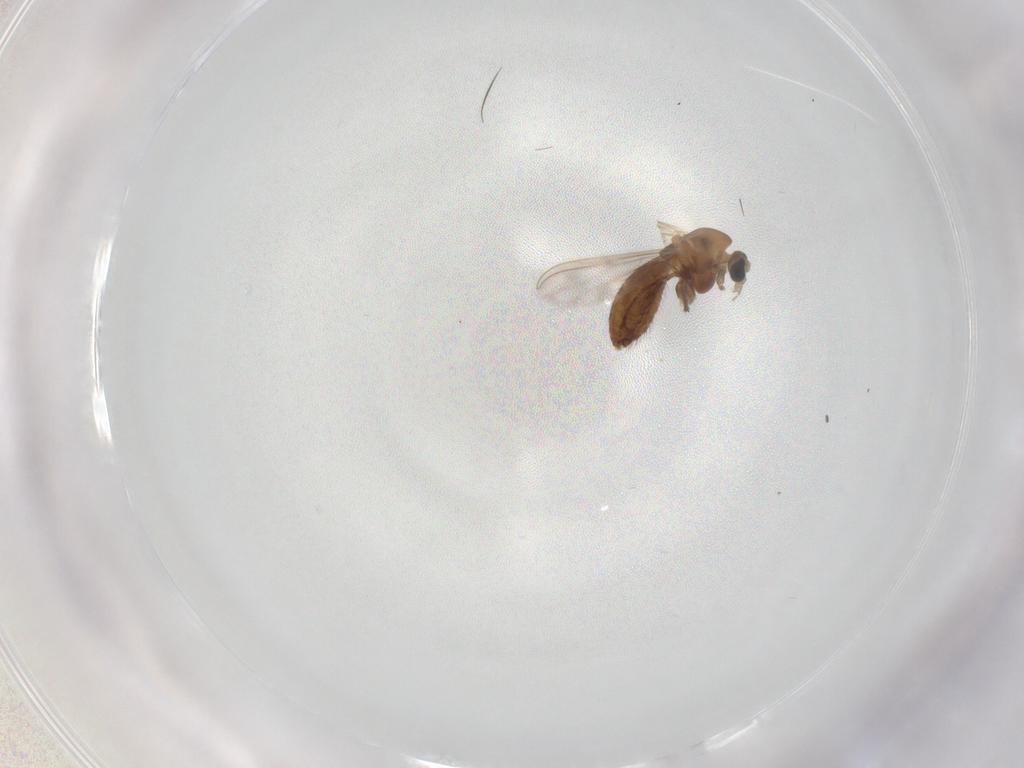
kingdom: Animalia
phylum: Arthropoda
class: Insecta
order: Diptera
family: Chironomidae
